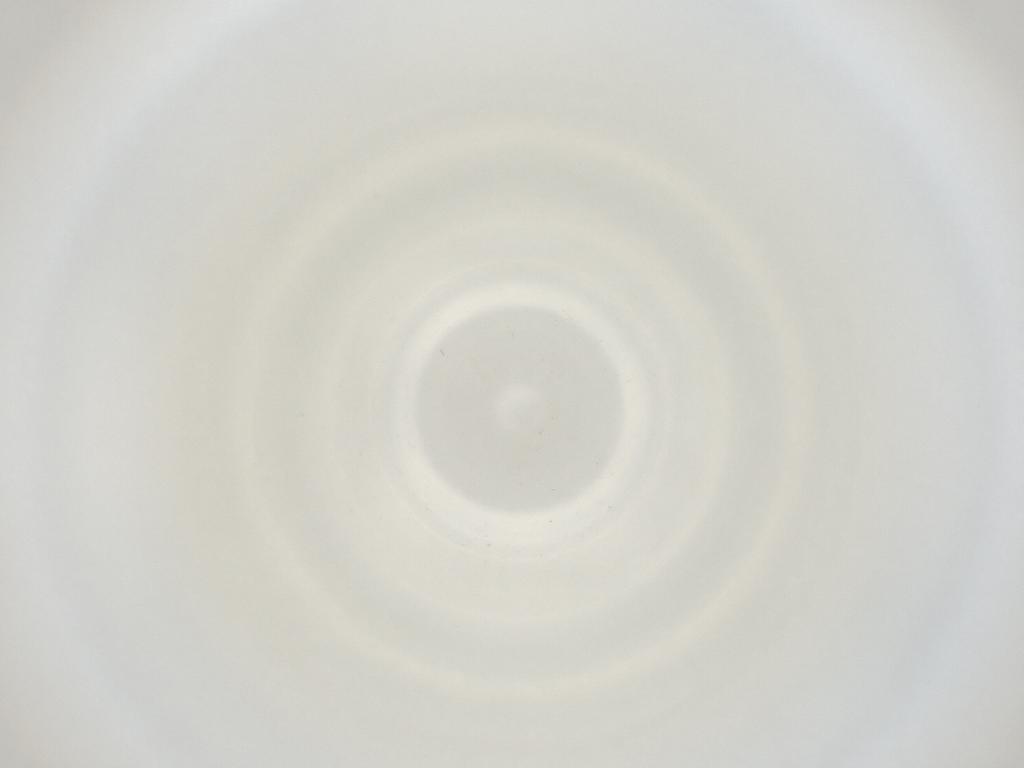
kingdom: Animalia
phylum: Arthropoda
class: Insecta
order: Diptera
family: Cecidomyiidae
